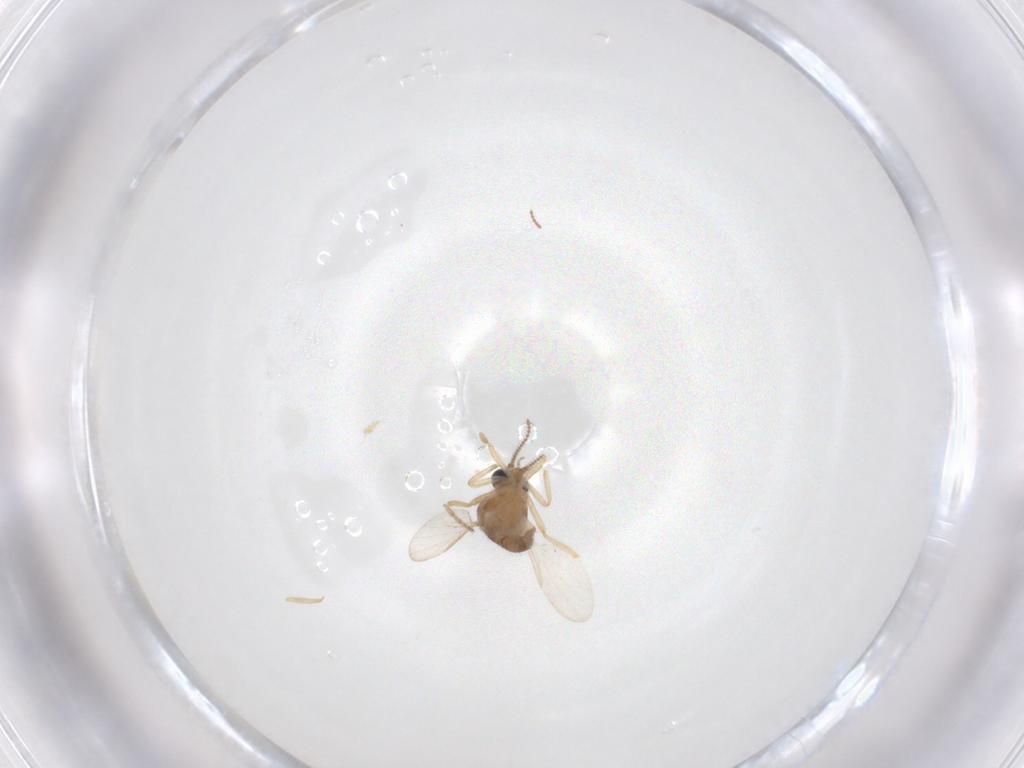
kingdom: Animalia
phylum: Arthropoda
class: Insecta
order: Diptera
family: Ceratopogonidae
